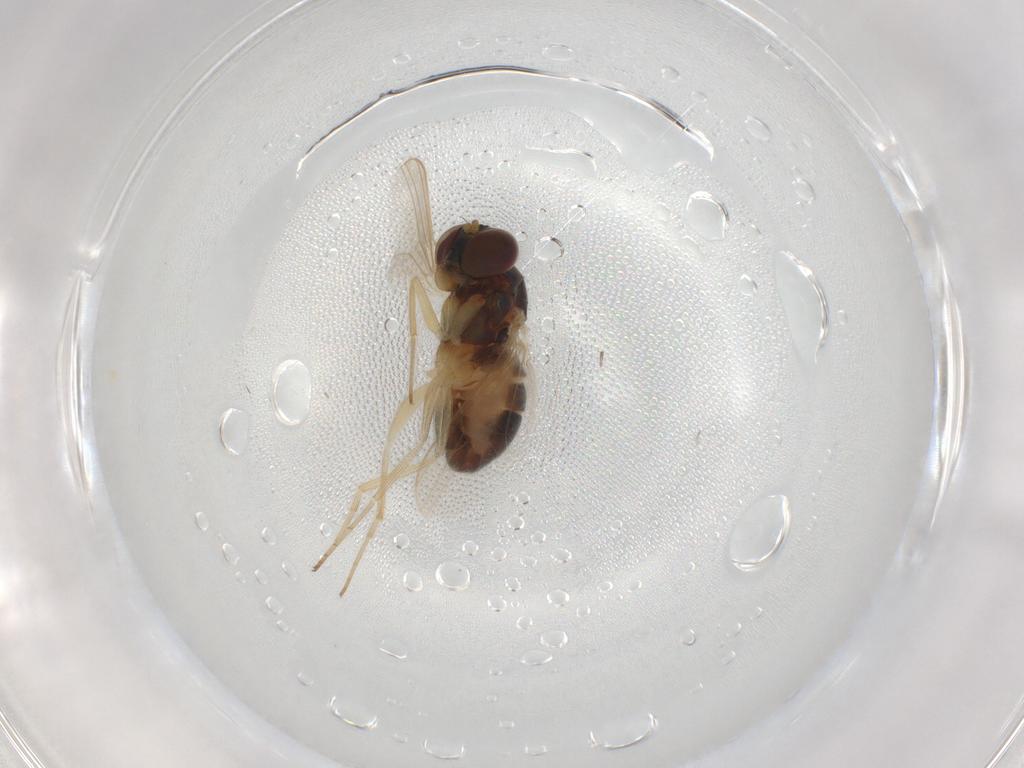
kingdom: Animalia
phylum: Arthropoda
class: Insecta
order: Diptera
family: Dolichopodidae
